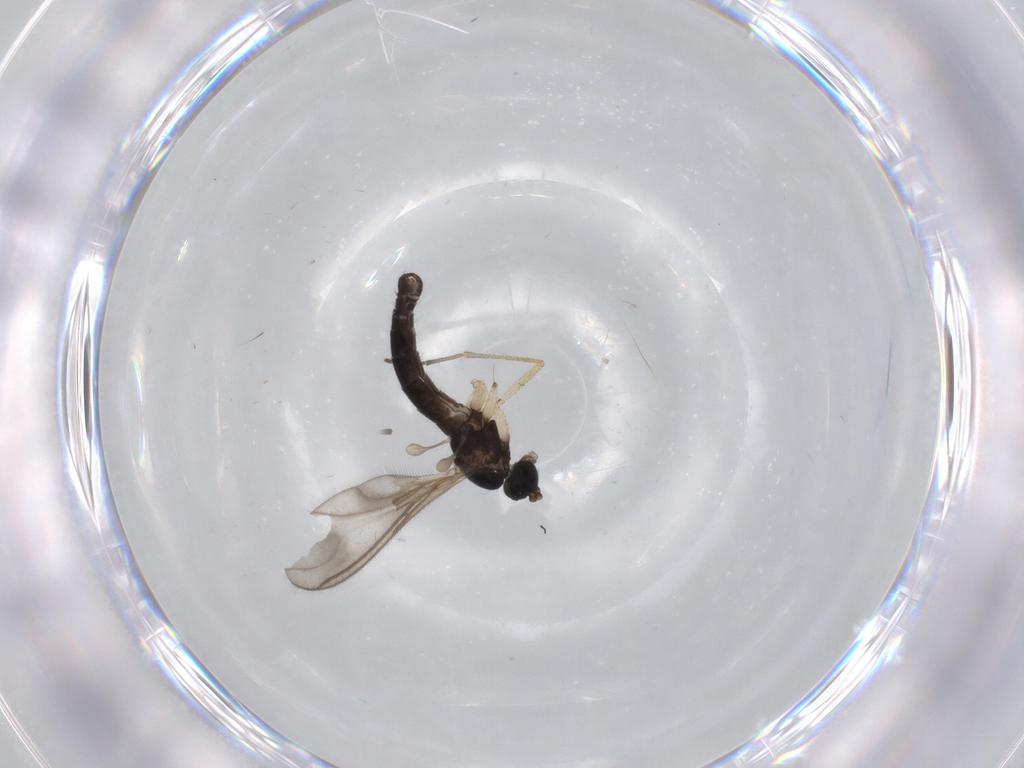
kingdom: Animalia
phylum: Arthropoda
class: Insecta
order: Diptera
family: Sciaridae
